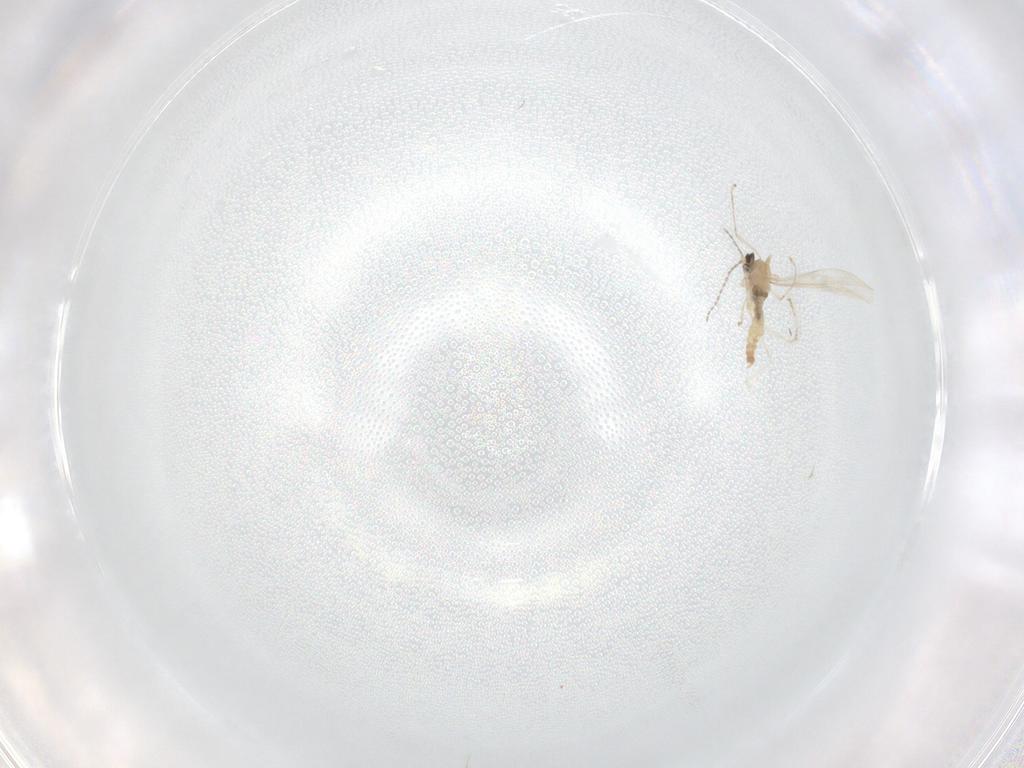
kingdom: Animalia
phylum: Arthropoda
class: Insecta
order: Diptera
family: Cecidomyiidae
